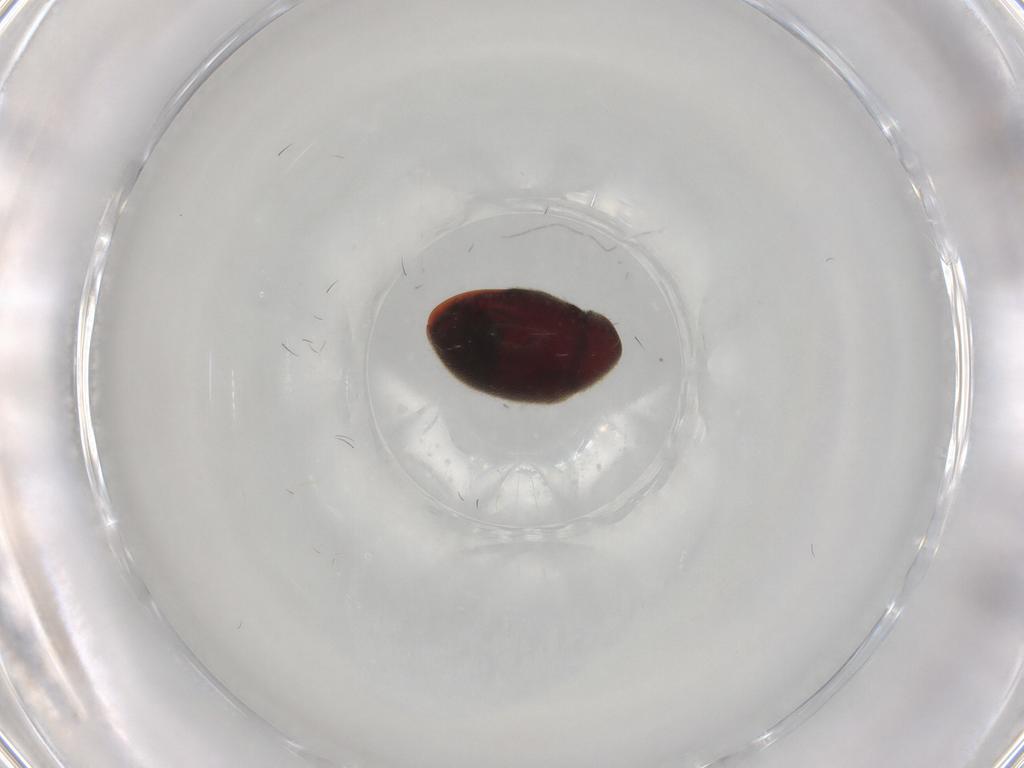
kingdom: Animalia
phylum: Arthropoda
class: Insecta
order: Coleoptera
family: Ptinidae
